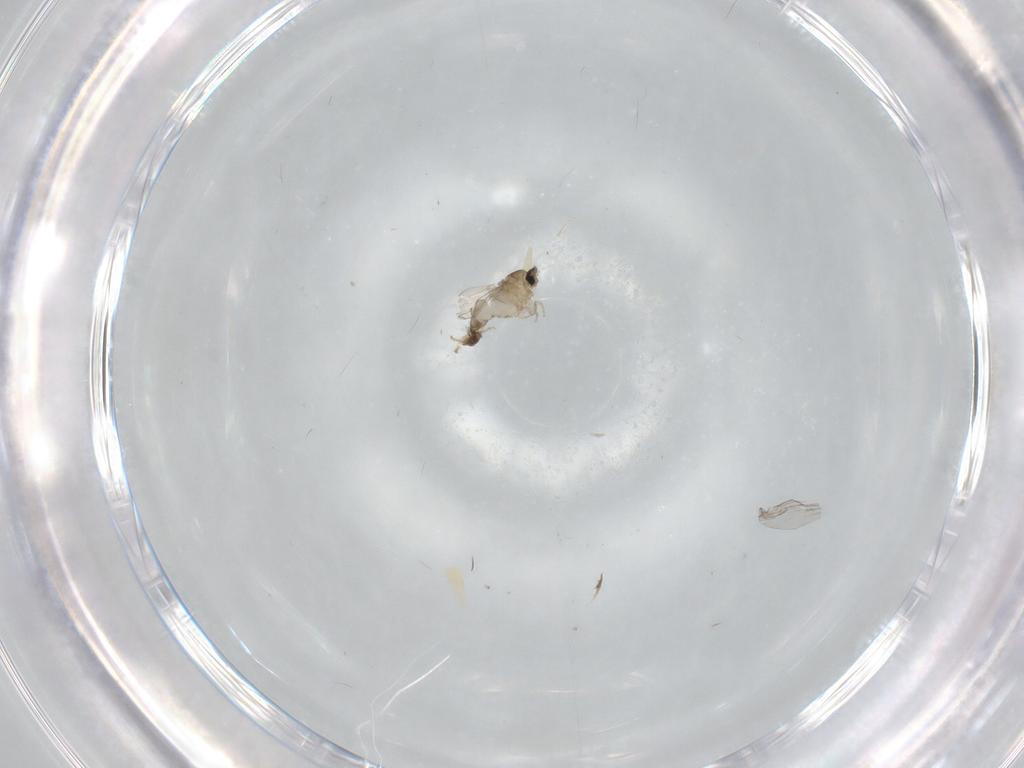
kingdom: Animalia
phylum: Arthropoda
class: Insecta
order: Diptera
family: Cecidomyiidae
